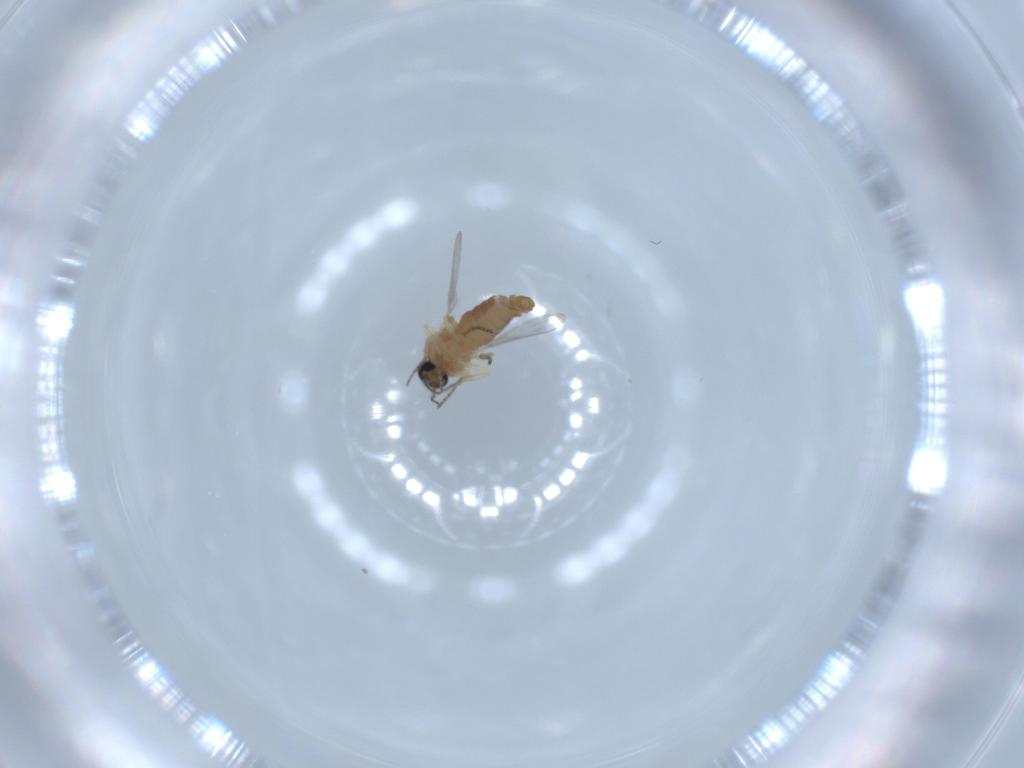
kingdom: Animalia
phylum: Arthropoda
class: Insecta
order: Diptera
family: Ceratopogonidae
